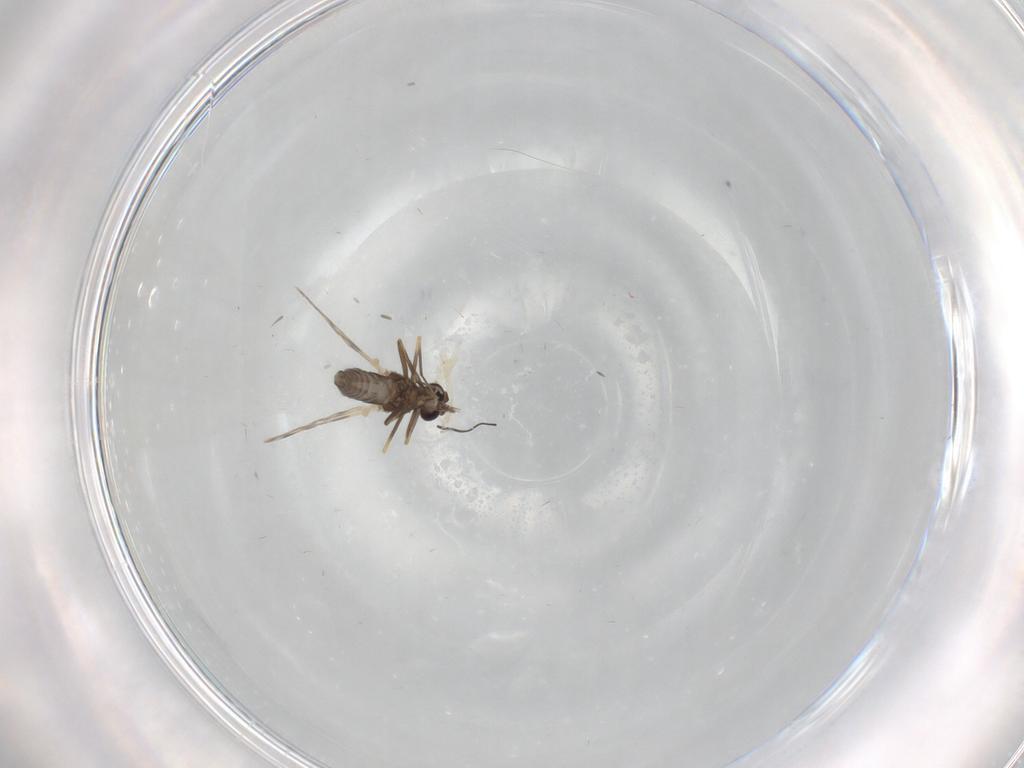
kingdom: Animalia
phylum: Arthropoda
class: Insecta
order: Diptera
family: Ceratopogonidae
